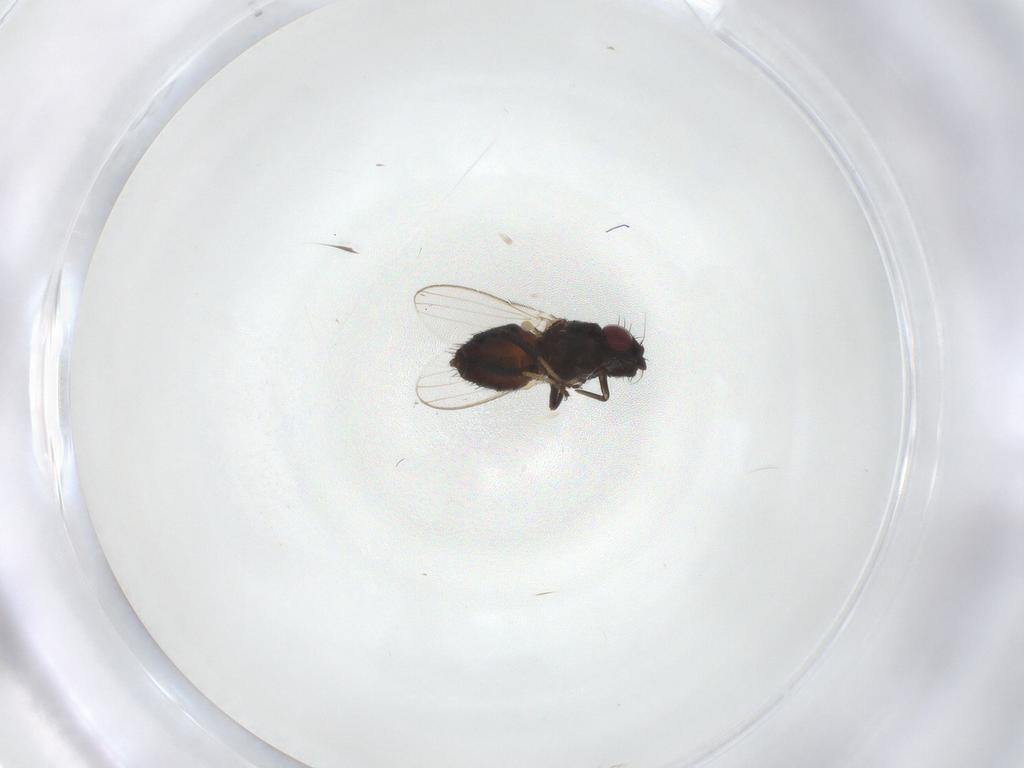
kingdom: Animalia
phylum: Arthropoda
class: Insecta
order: Diptera
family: Milichiidae
